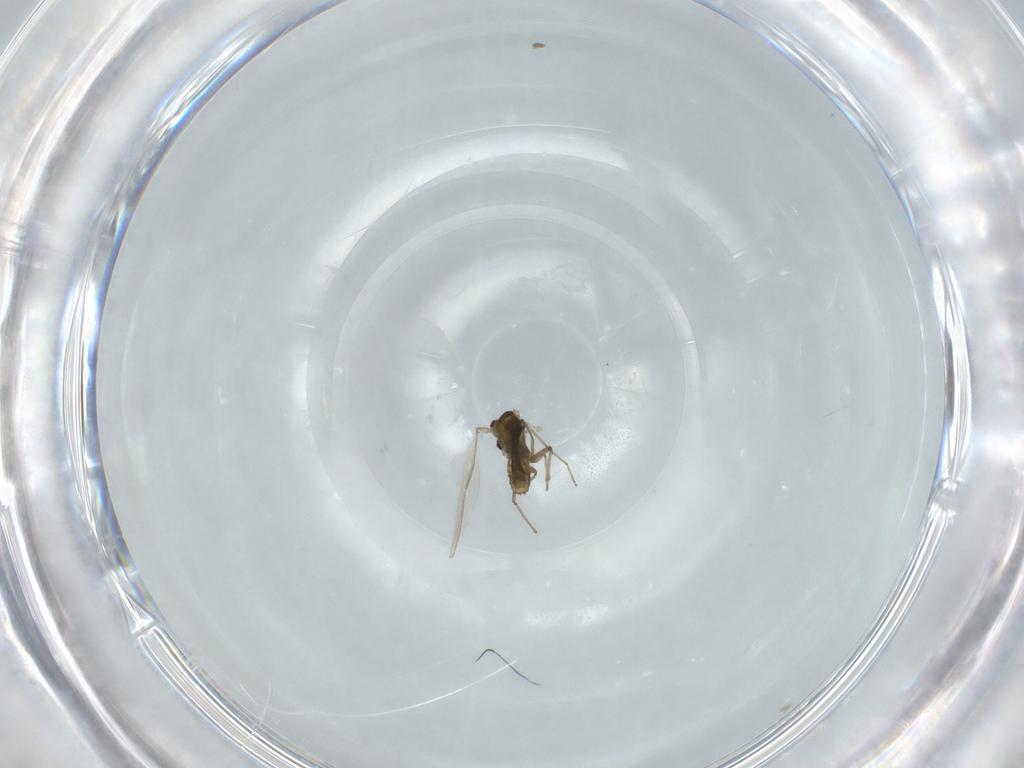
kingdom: Animalia
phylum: Arthropoda
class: Insecta
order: Diptera
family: Chironomidae
